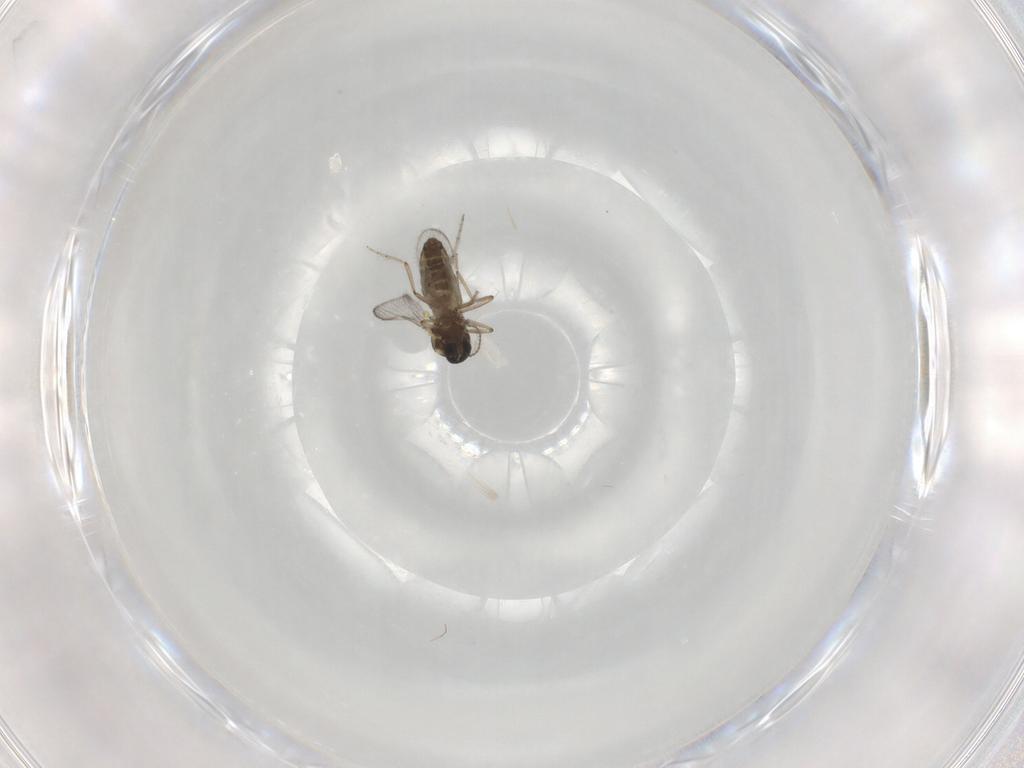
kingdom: Animalia
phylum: Arthropoda
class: Insecta
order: Diptera
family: Ceratopogonidae
